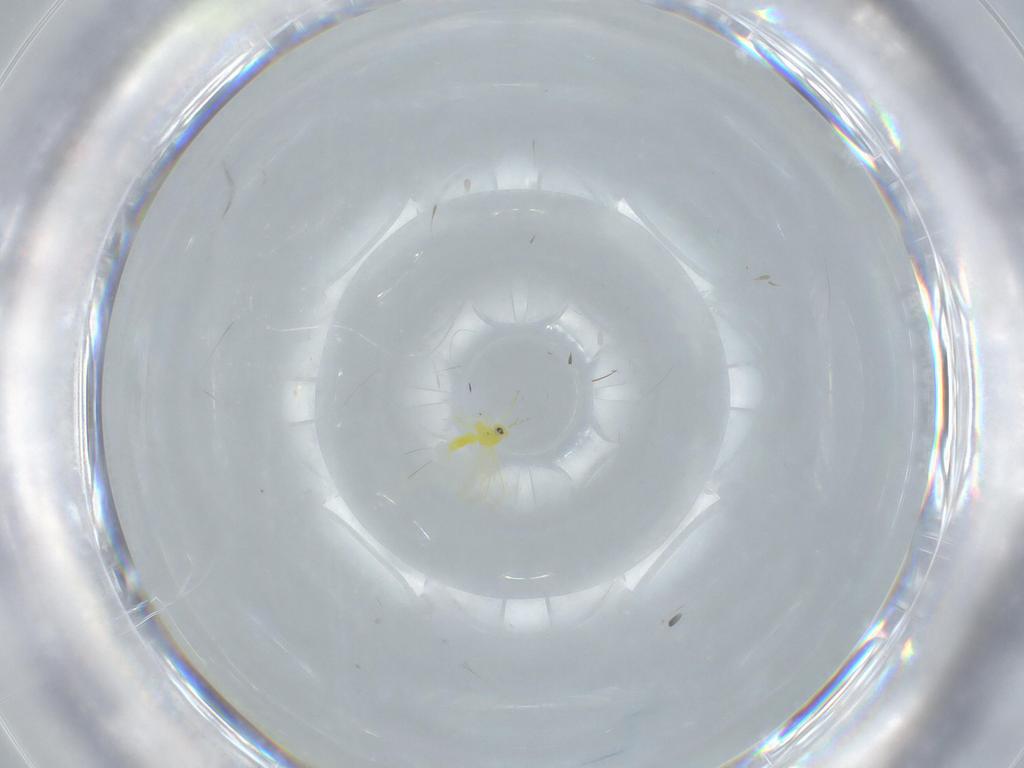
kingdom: Animalia
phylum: Arthropoda
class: Insecta
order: Hemiptera
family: Aleyrodidae
